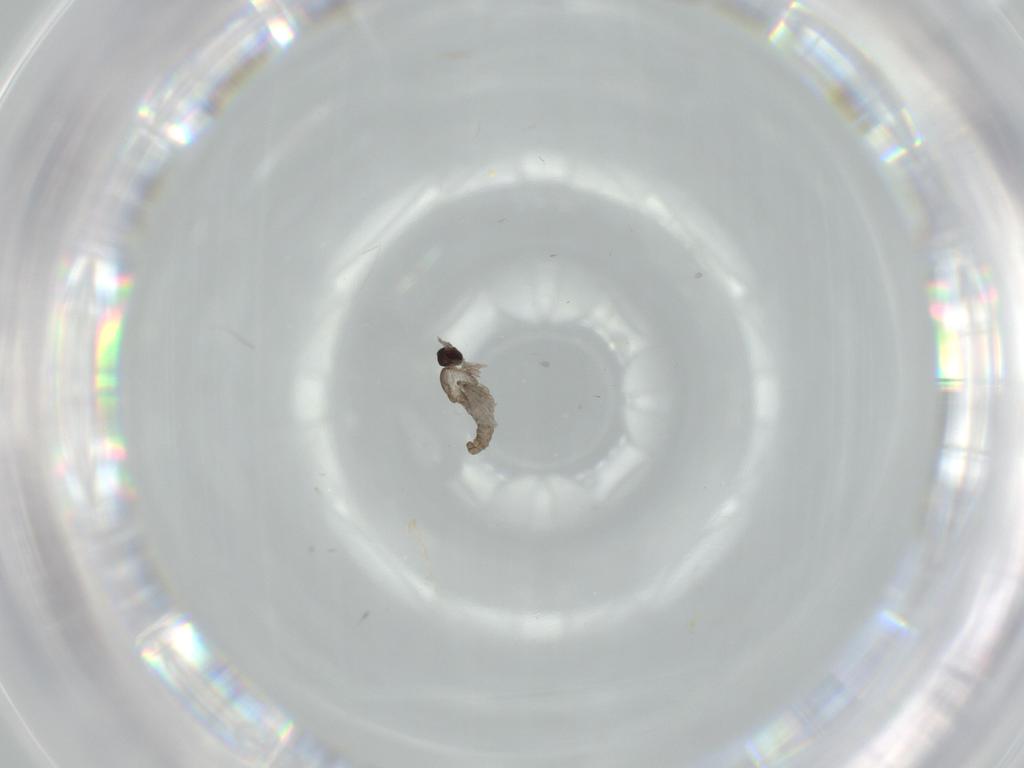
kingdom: Animalia
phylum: Arthropoda
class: Insecta
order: Diptera
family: Cecidomyiidae
